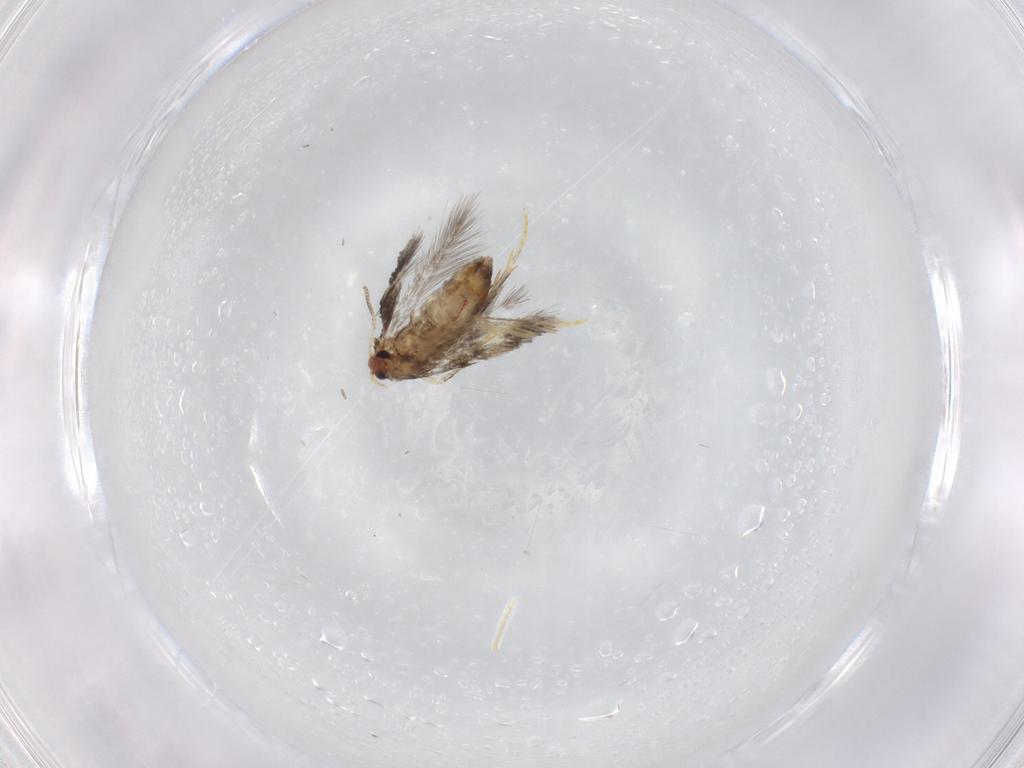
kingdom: Animalia
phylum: Arthropoda
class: Insecta
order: Lepidoptera
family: Nepticulidae
